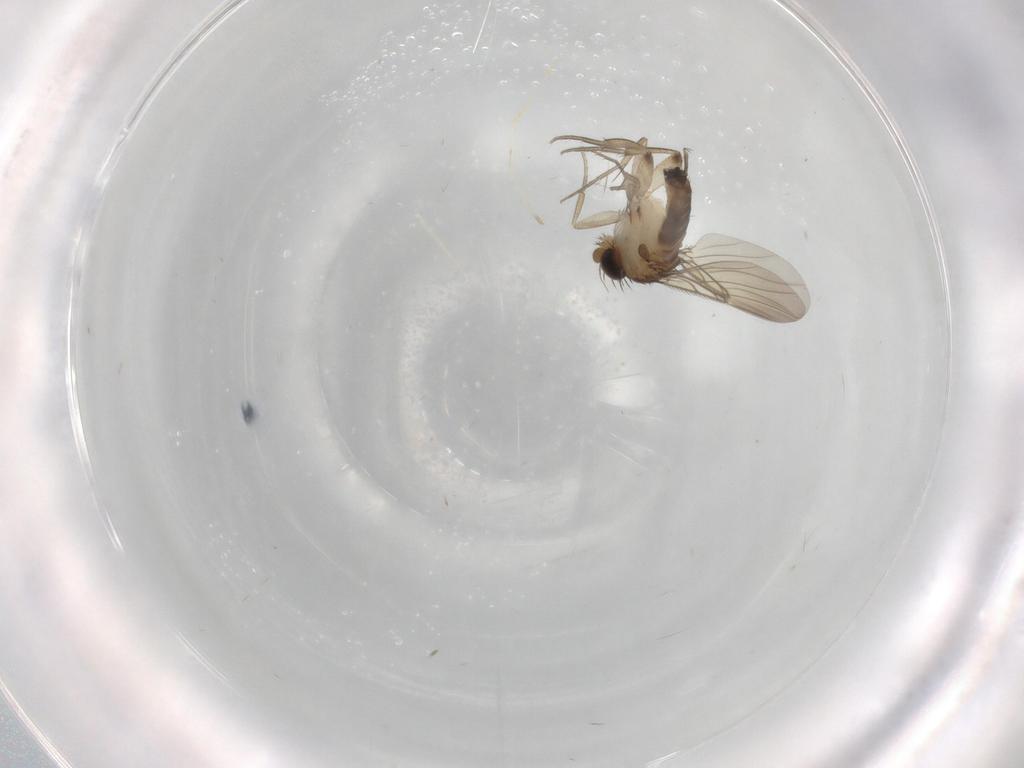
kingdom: Animalia
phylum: Arthropoda
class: Insecta
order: Diptera
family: Phoridae
